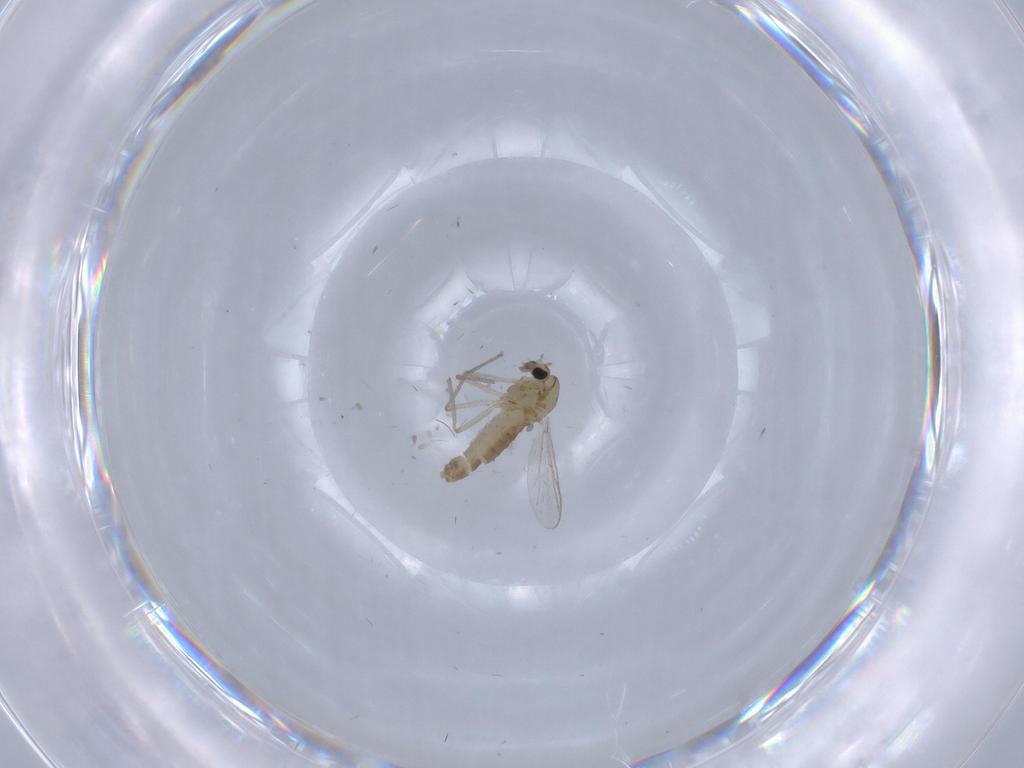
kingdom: Animalia
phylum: Arthropoda
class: Insecta
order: Diptera
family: Chironomidae
